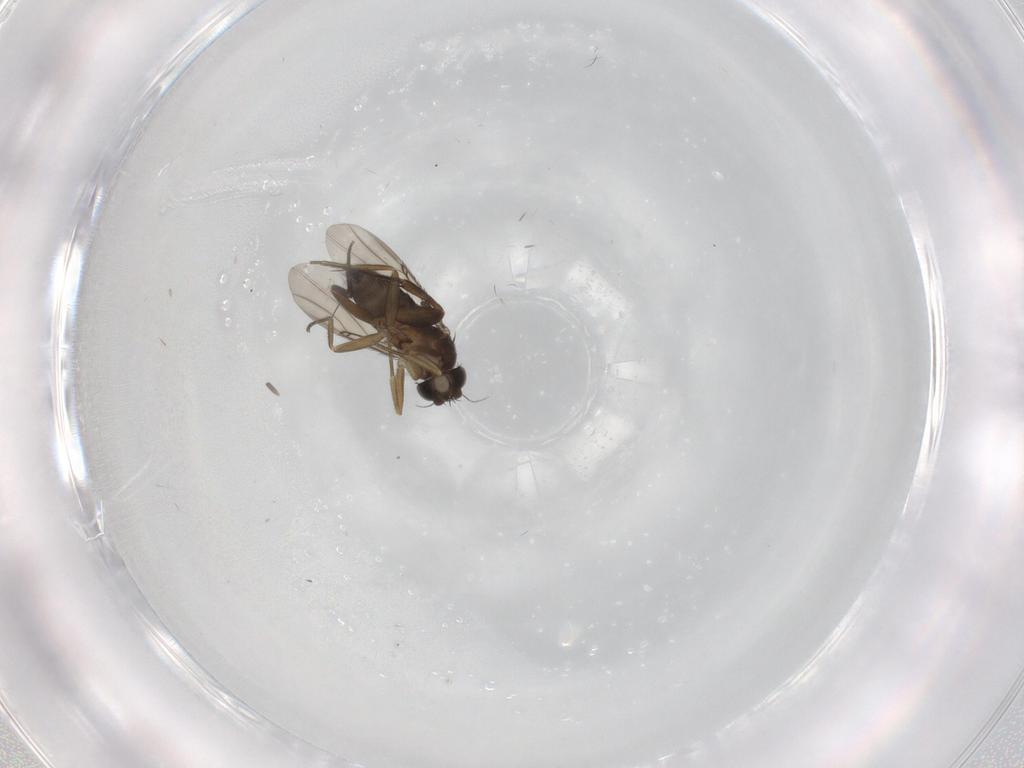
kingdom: Animalia
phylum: Arthropoda
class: Insecta
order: Diptera
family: Phoridae
